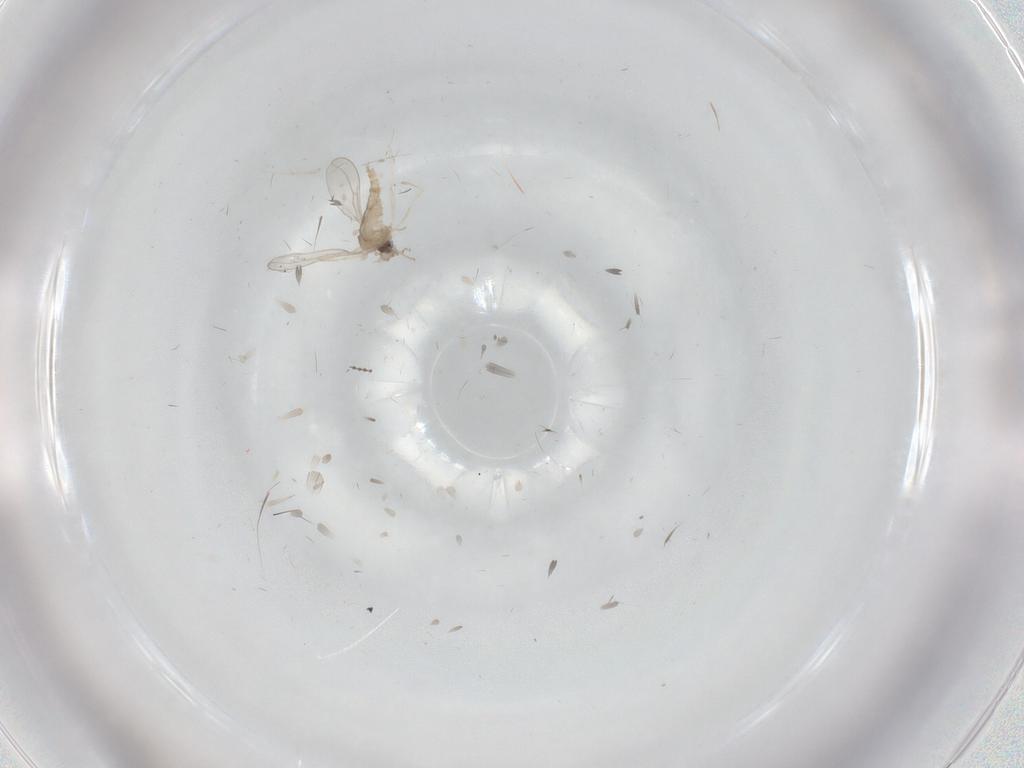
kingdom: Animalia
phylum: Arthropoda
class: Insecta
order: Diptera
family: Cecidomyiidae
